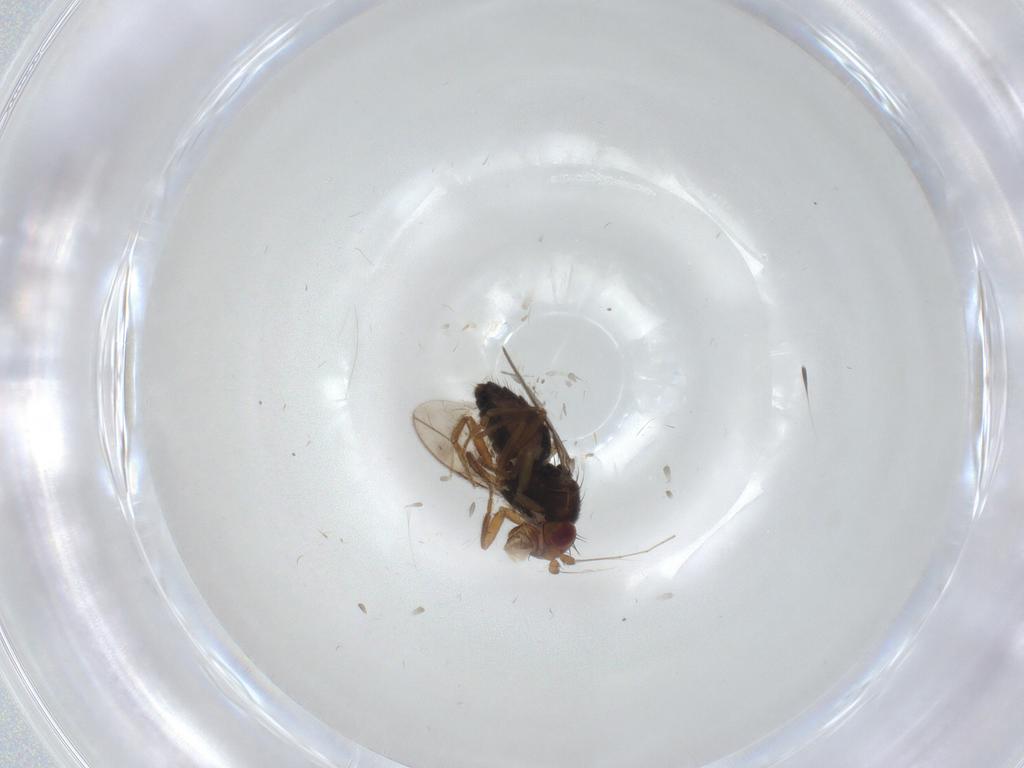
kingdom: Animalia
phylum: Arthropoda
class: Insecta
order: Diptera
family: Sphaeroceridae
